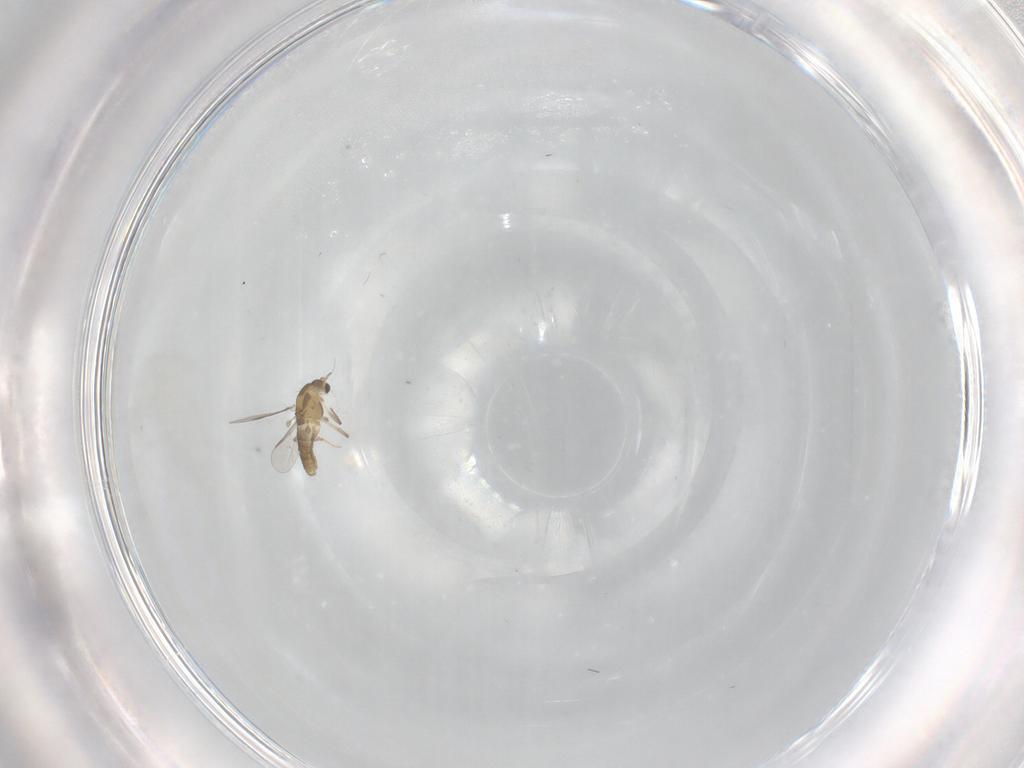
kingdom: Animalia
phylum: Arthropoda
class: Insecta
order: Diptera
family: Chironomidae
